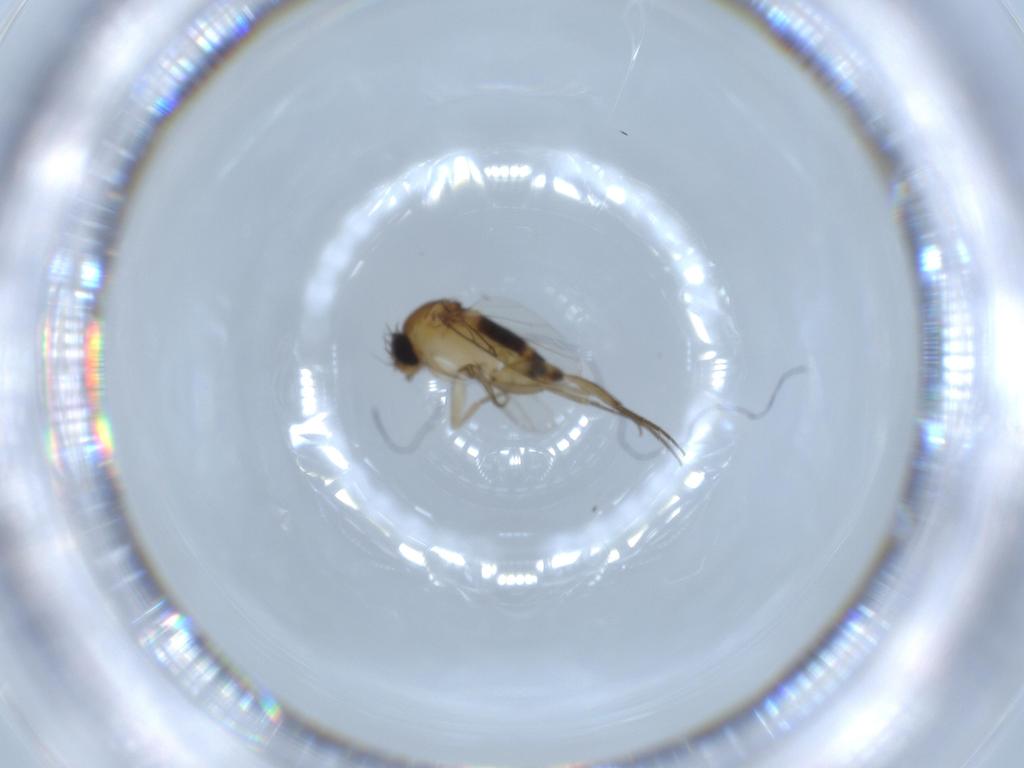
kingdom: Animalia
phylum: Arthropoda
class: Insecta
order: Diptera
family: Phoridae
